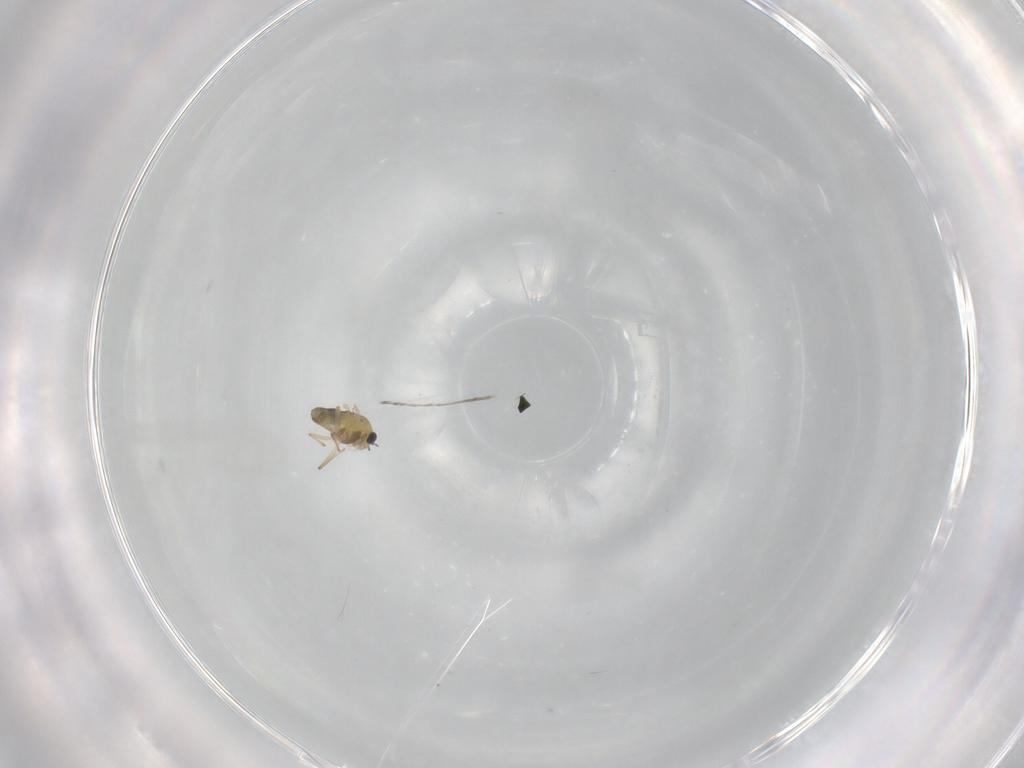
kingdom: Animalia
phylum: Arthropoda
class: Insecta
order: Diptera
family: Chironomidae
